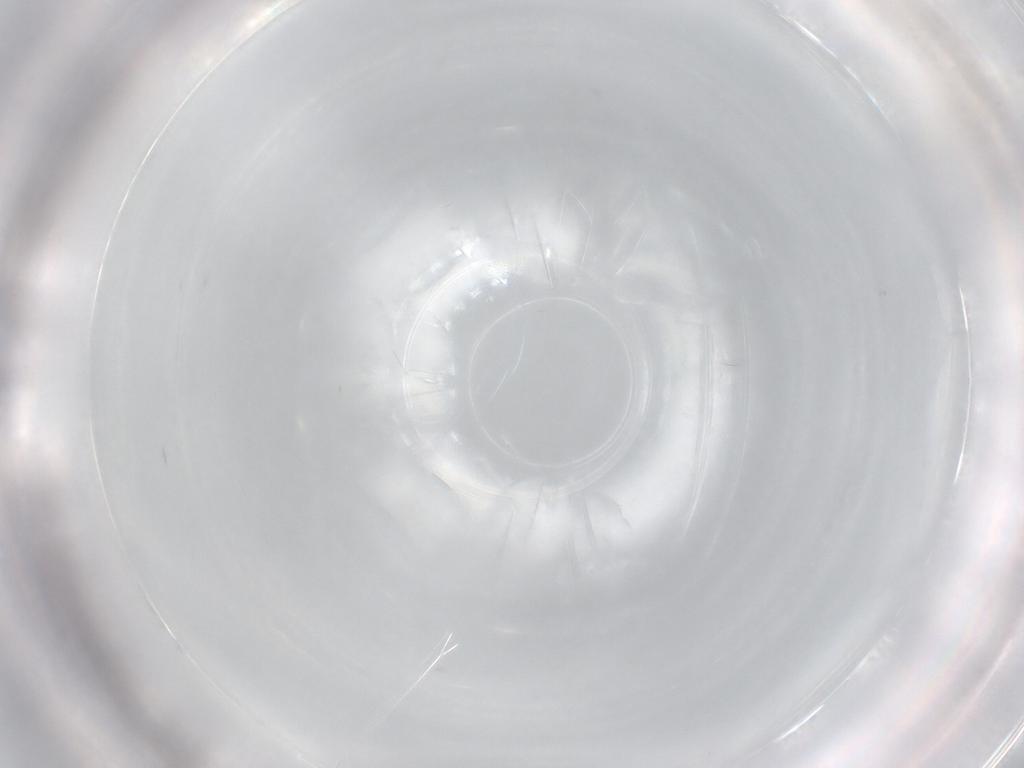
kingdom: Animalia
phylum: Arthropoda
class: Insecta
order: Hymenoptera
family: Trichogrammatidae
